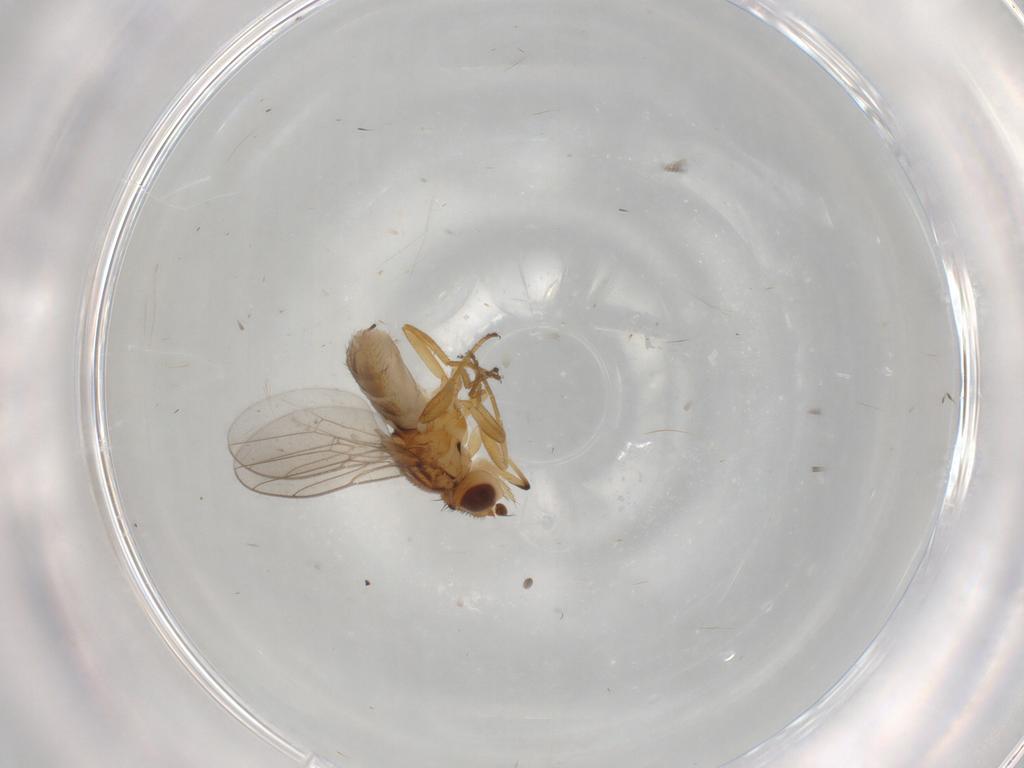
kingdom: Animalia
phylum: Arthropoda
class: Insecta
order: Diptera
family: Chloropidae
